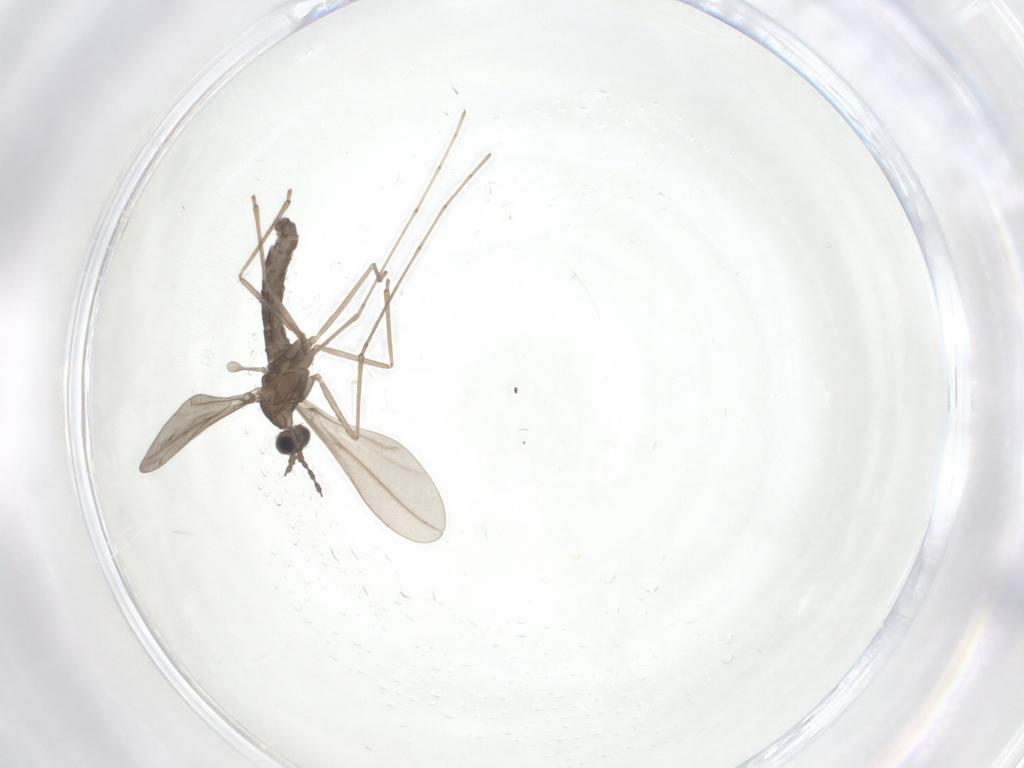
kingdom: Animalia
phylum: Arthropoda
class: Insecta
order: Diptera
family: Cecidomyiidae
